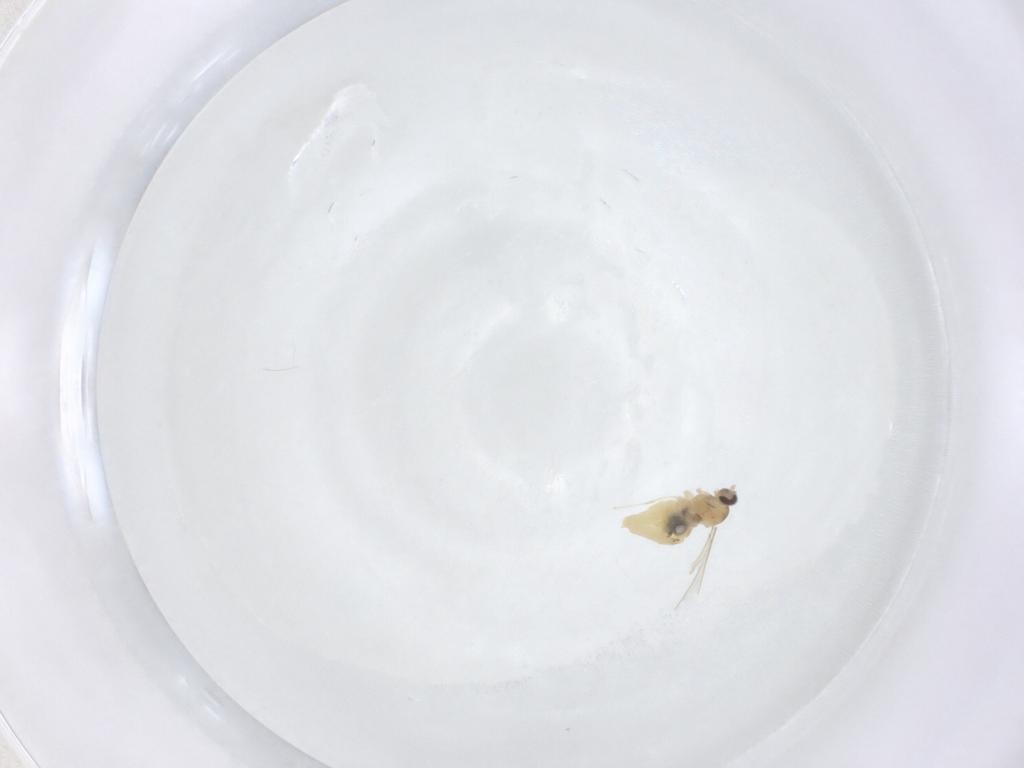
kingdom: Animalia
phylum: Arthropoda
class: Insecta
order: Diptera
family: Cecidomyiidae
